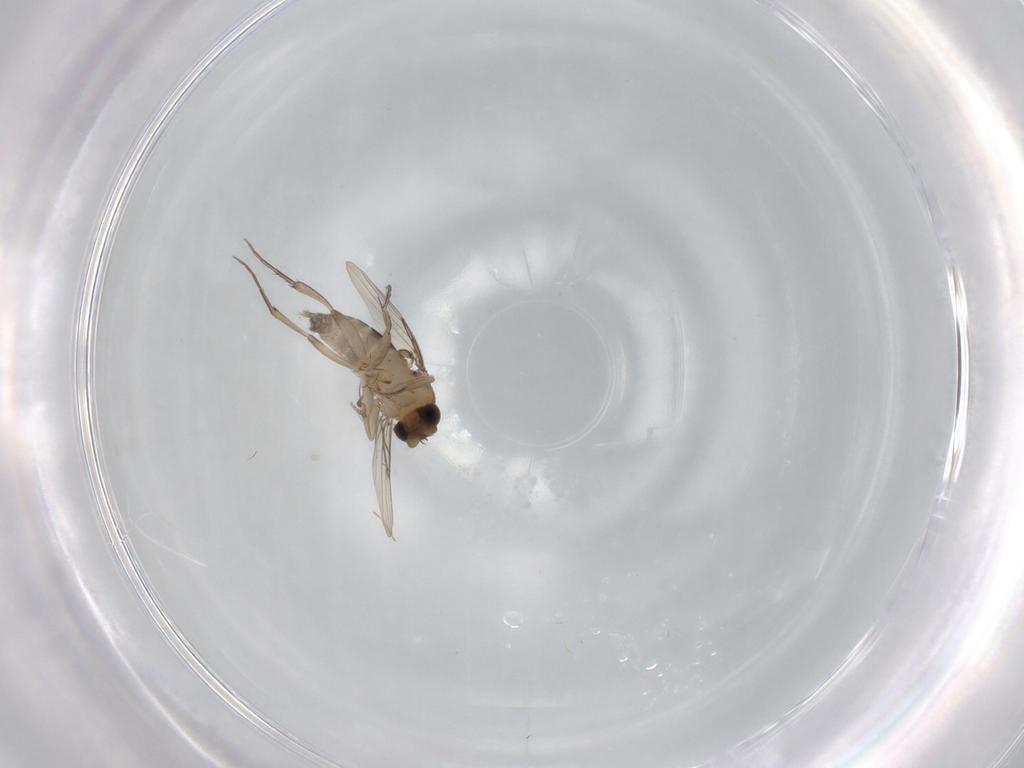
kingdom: Animalia
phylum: Arthropoda
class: Insecta
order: Diptera
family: Phoridae
